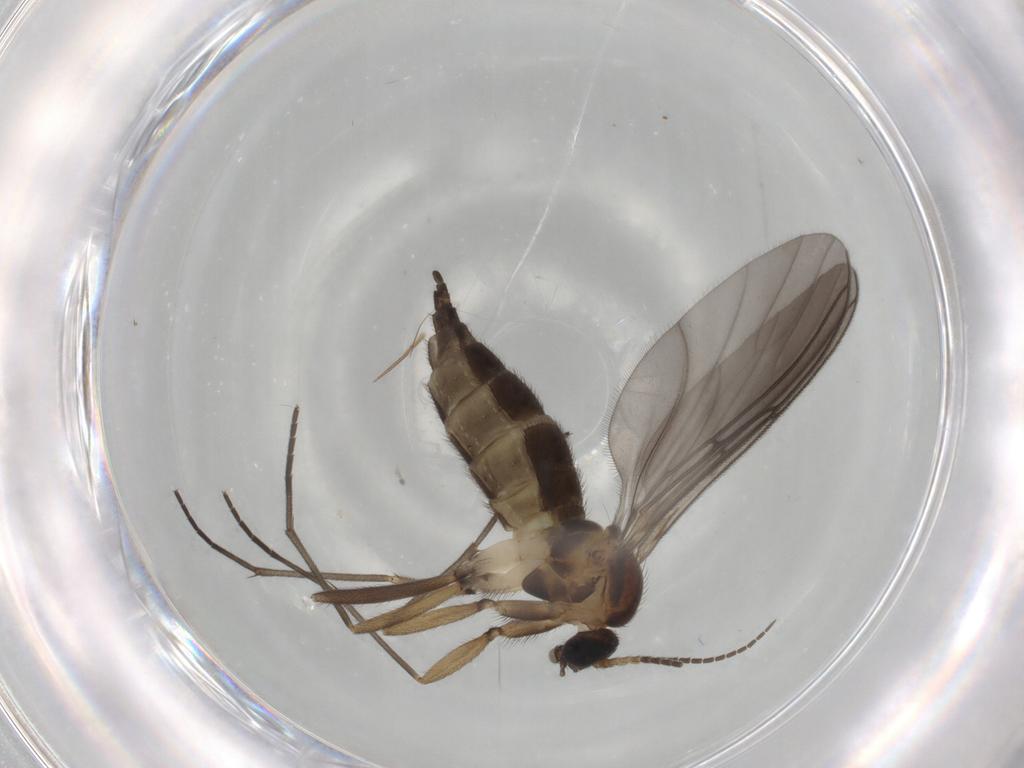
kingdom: Animalia
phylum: Arthropoda
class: Insecta
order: Diptera
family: Sciaridae
